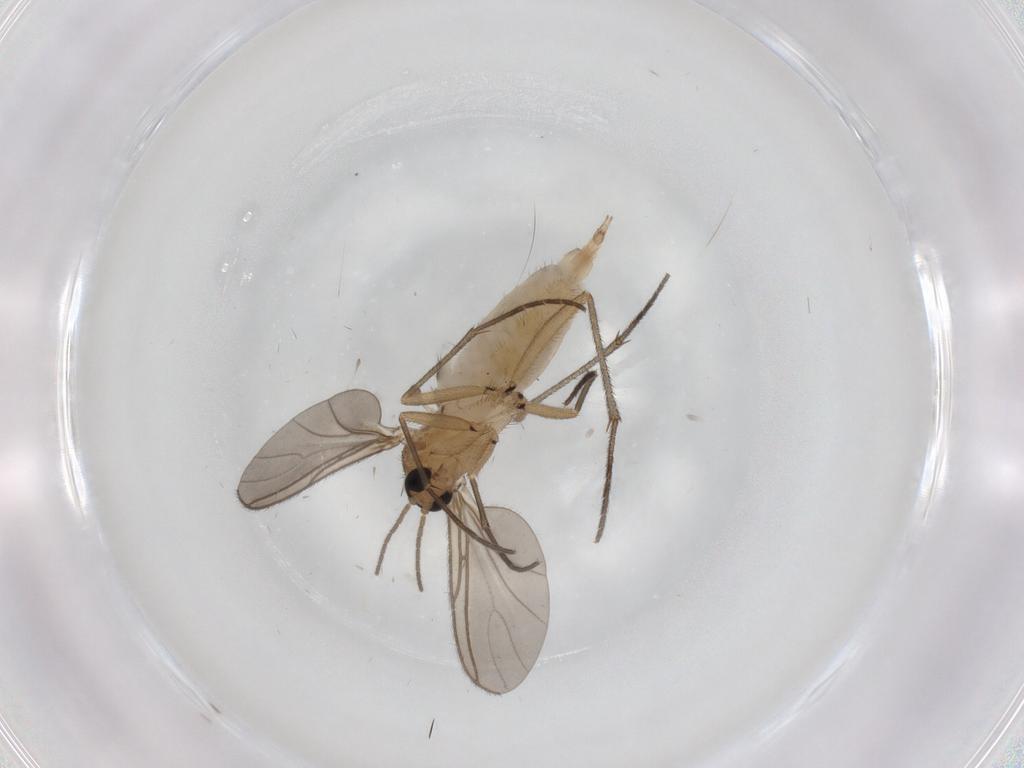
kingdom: Animalia
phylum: Arthropoda
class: Insecta
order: Diptera
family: Sciaridae
